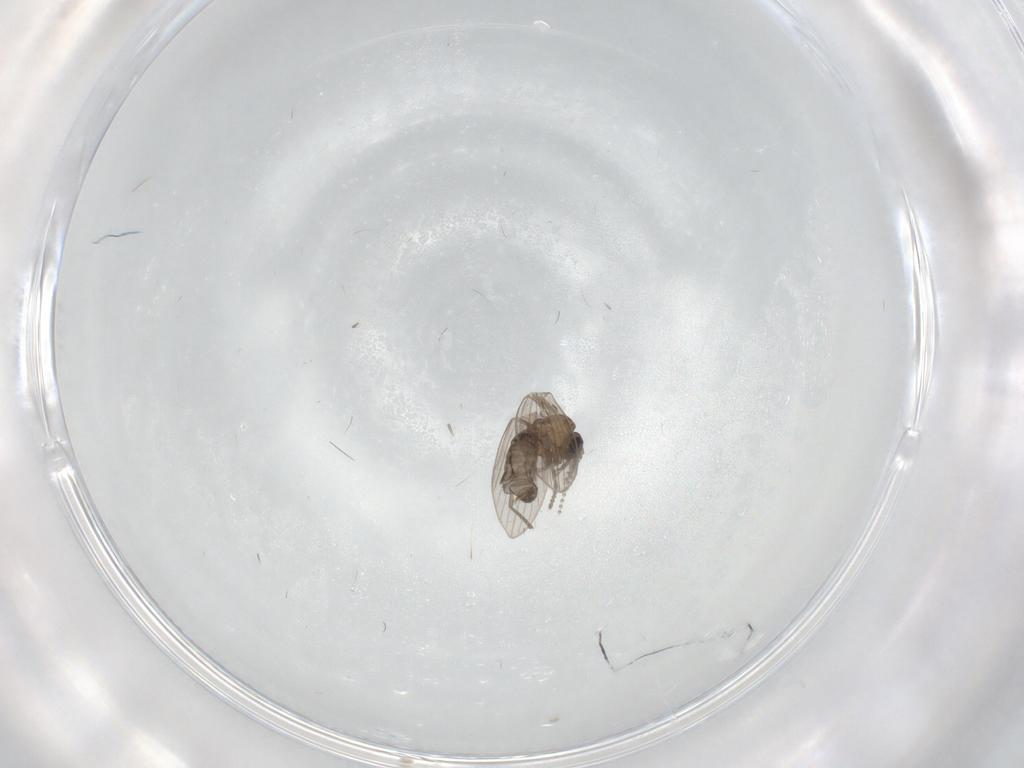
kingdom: Animalia
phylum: Arthropoda
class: Insecta
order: Diptera
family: Psychodidae
